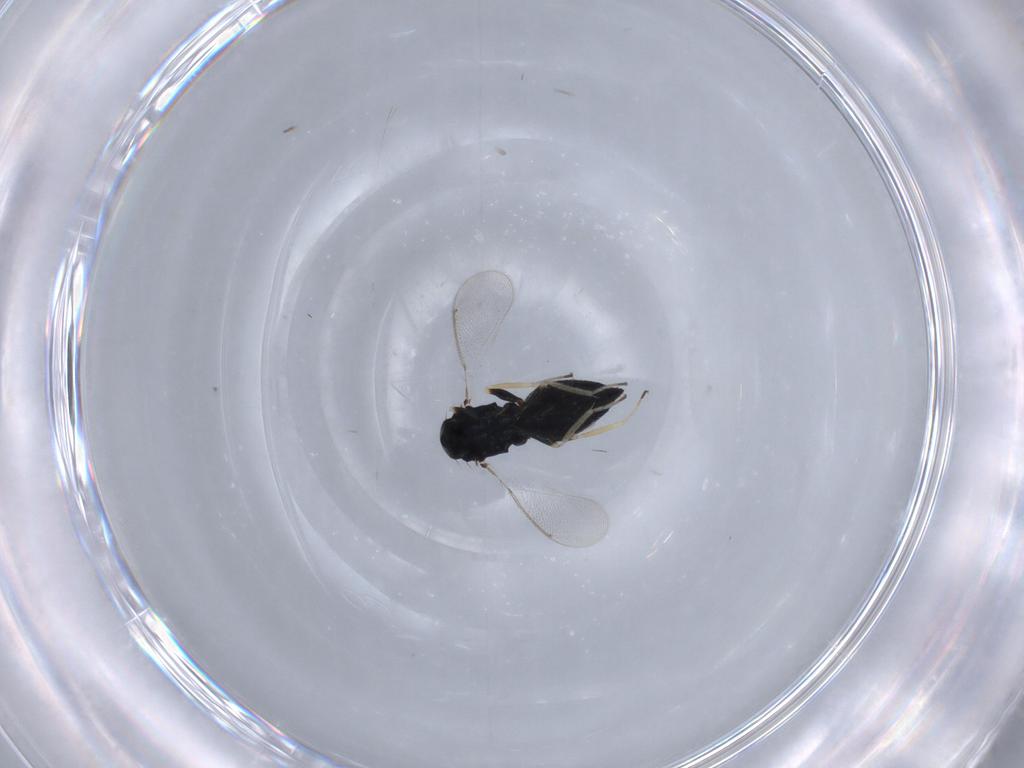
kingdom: Animalia
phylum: Arthropoda
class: Insecta
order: Hymenoptera
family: Eulophidae
